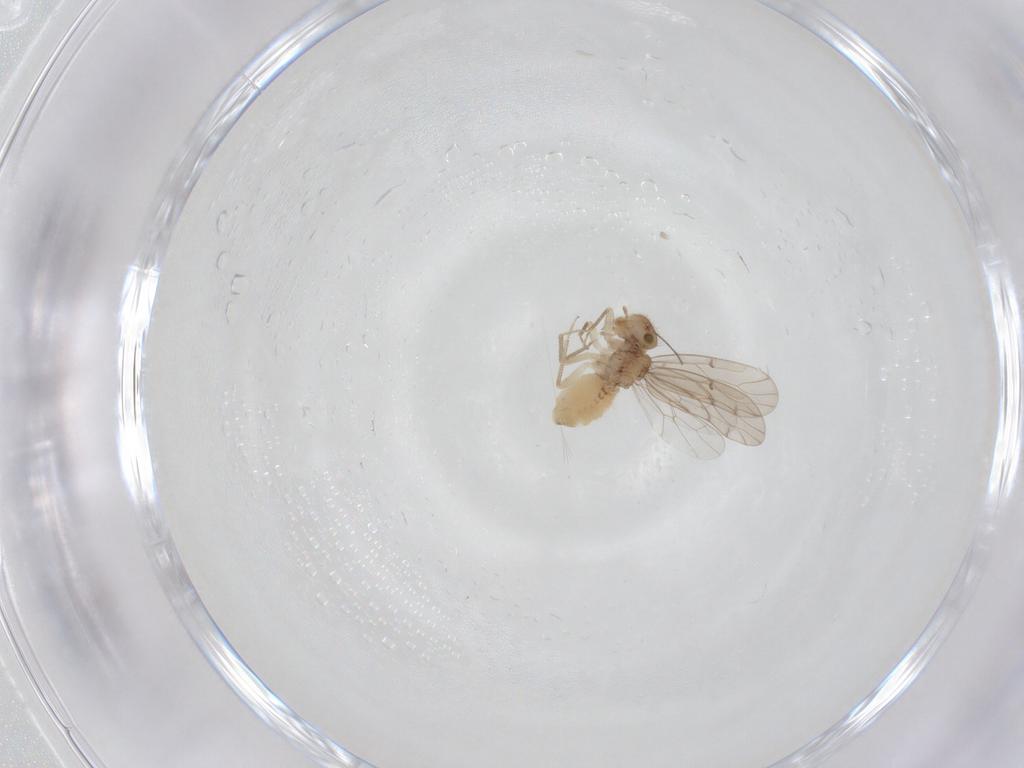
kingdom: Animalia
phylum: Arthropoda
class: Insecta
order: Psocodea
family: Ectopsocidae
